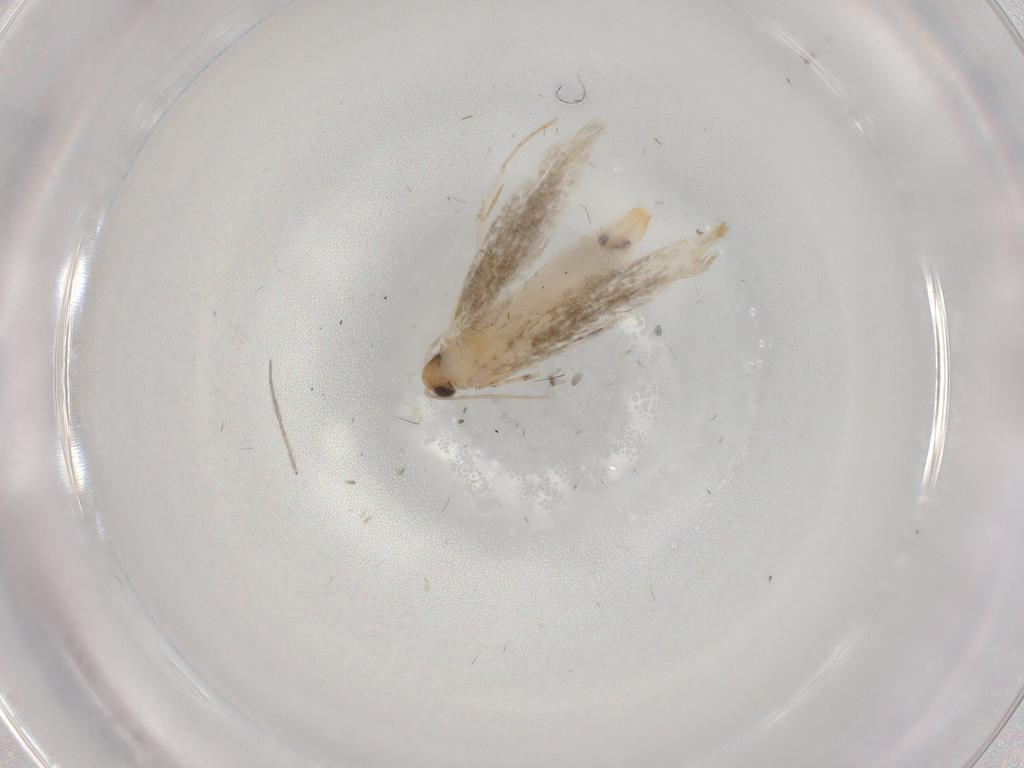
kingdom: Animalia
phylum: Arthropoda
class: Insecta
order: Lepidoptera
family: Tineidae
